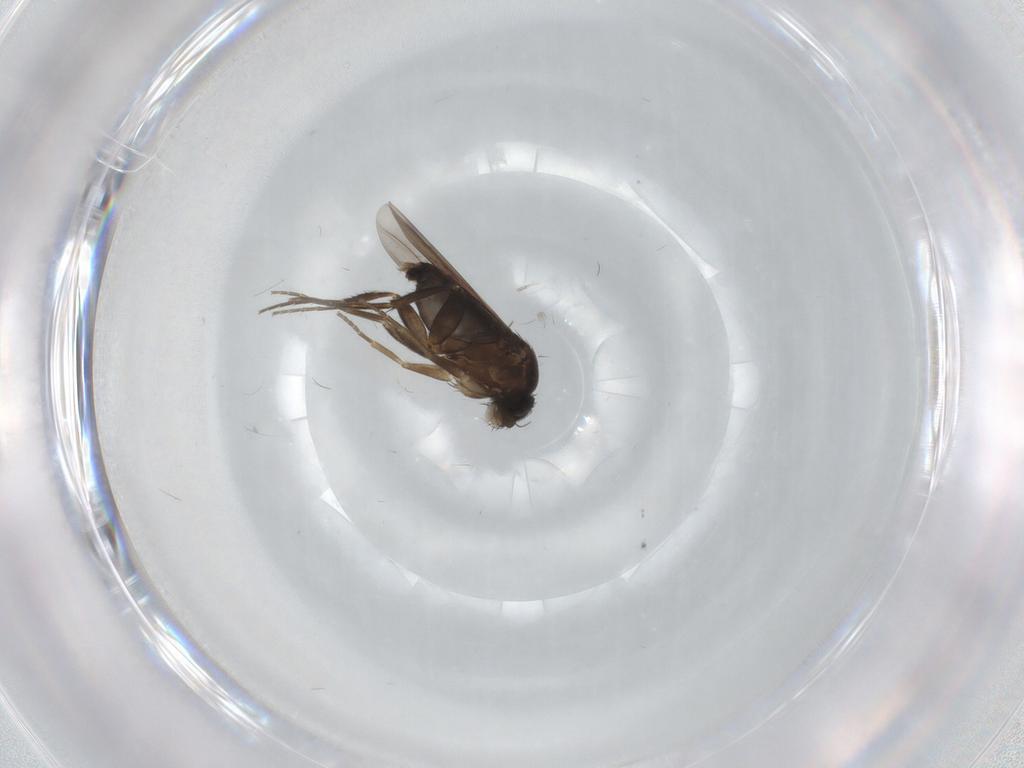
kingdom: Animalia
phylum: Arthropoda
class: Insecta
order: Diptera
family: Phoridae
